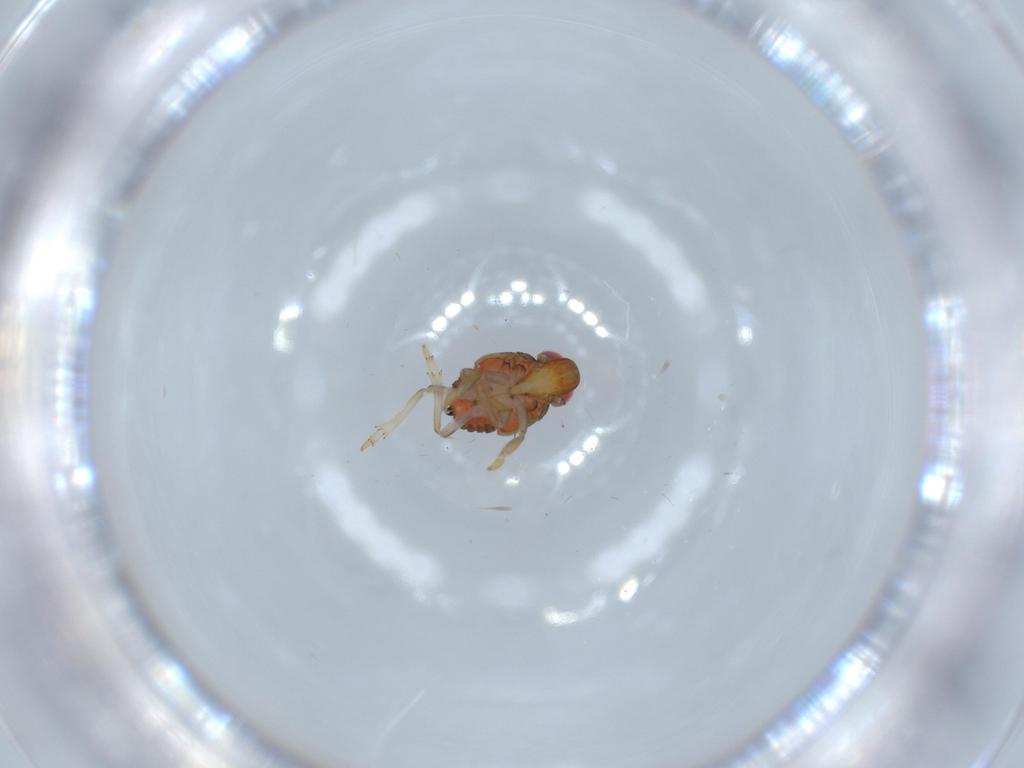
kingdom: Animalia
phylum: Arthropoda
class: Insecta
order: Hemiptera
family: Issidae
